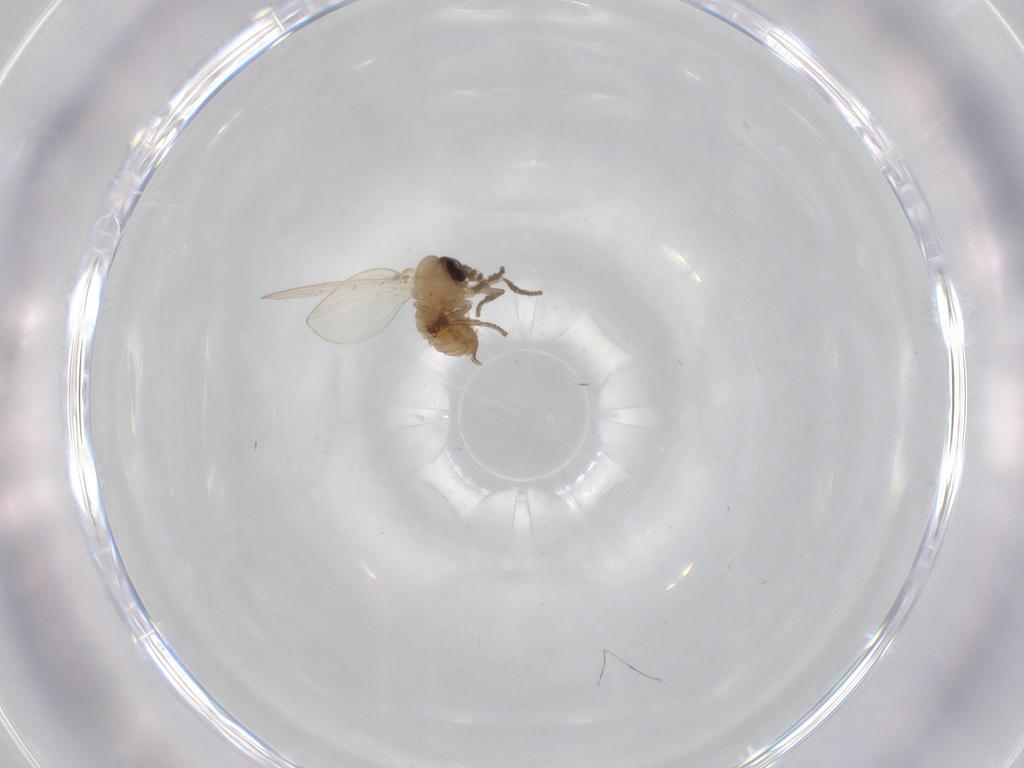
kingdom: Animalia
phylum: Arthropoda
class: Insecta
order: Diptera
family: Psychodidae
